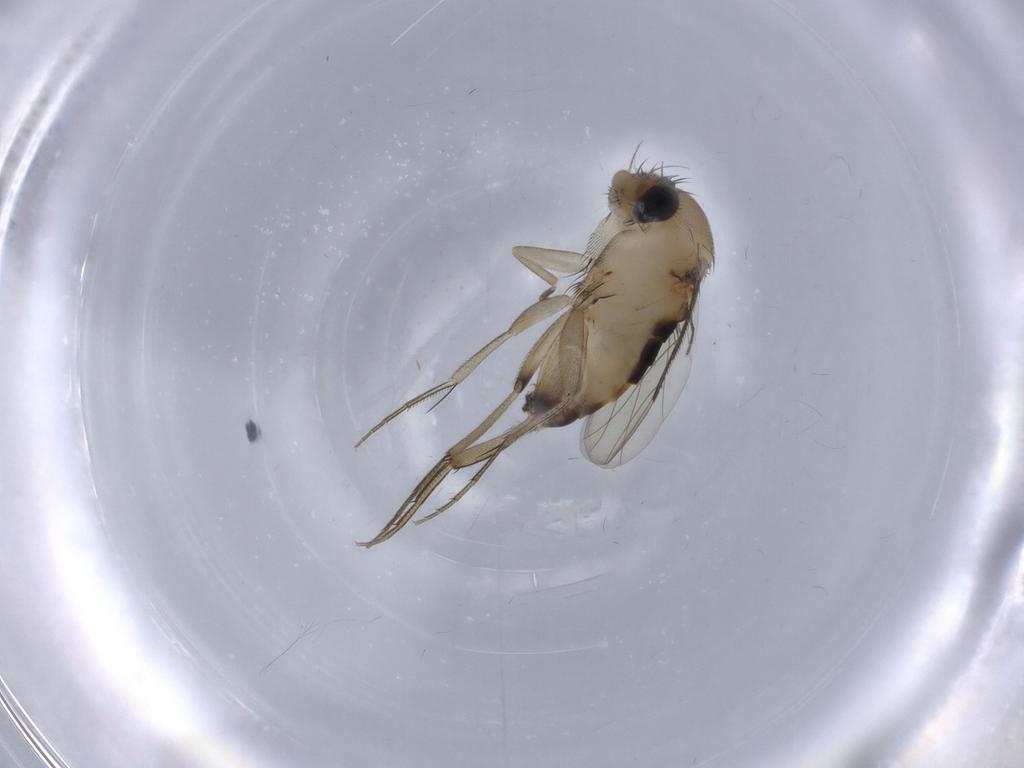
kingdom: Animalia
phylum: Arthropoda
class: Insecta
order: Diptera
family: Phoridae
